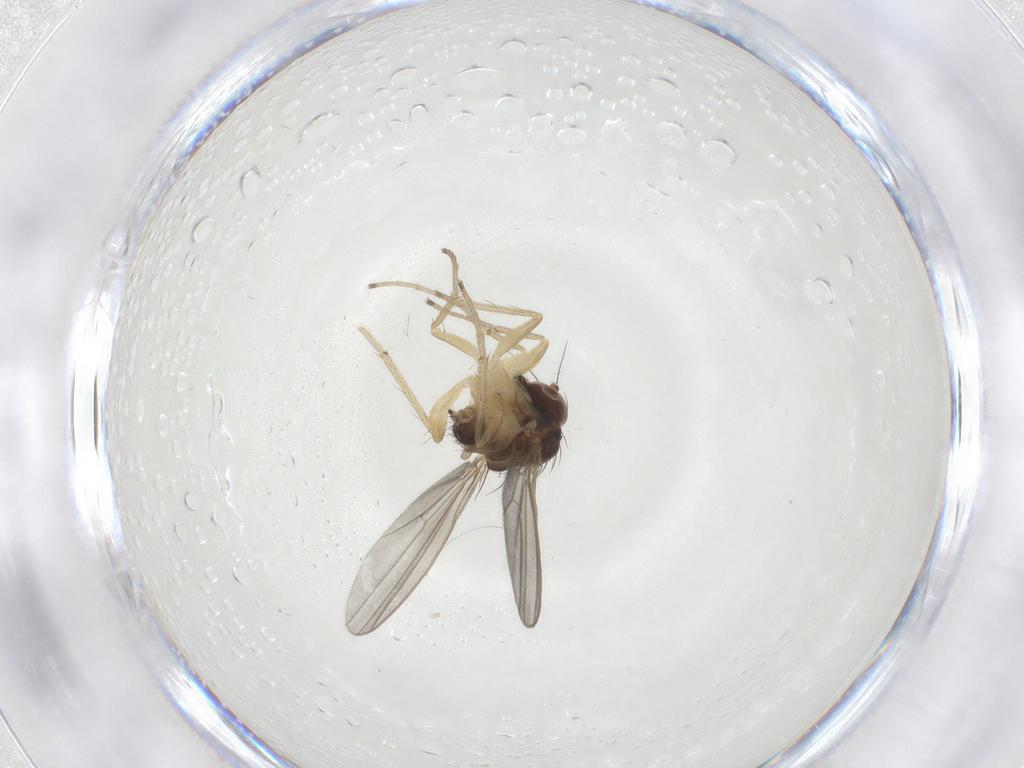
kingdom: Animalia
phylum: Arthropoda
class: Insecta
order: Diptera
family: Cecidomyiidae
